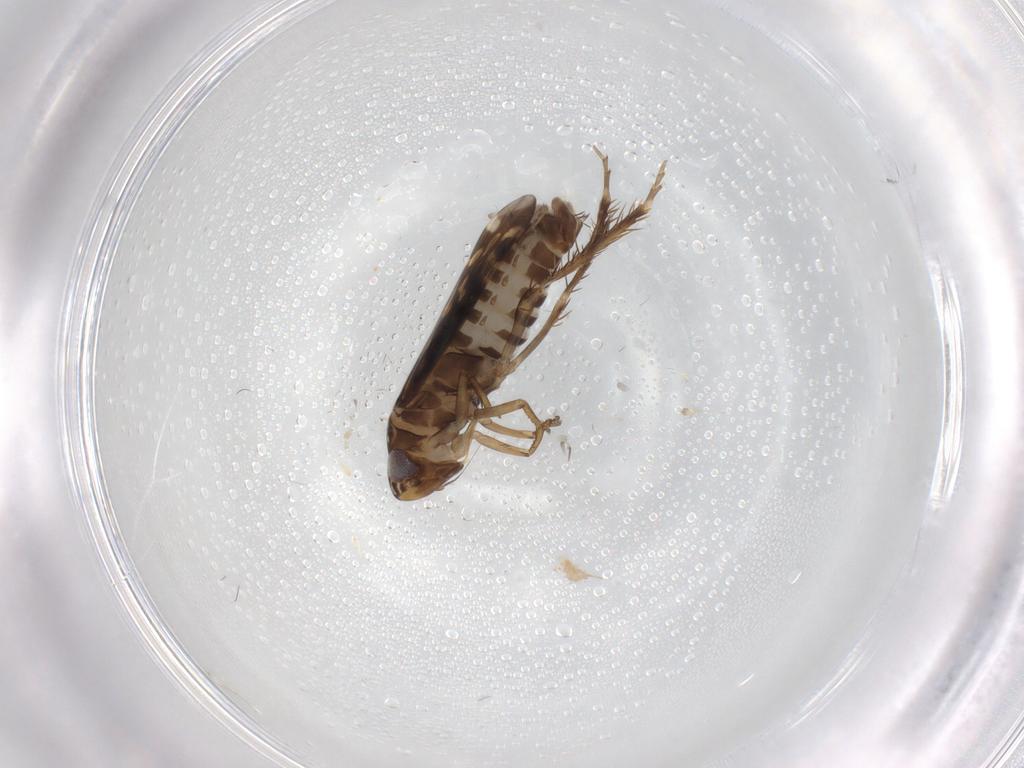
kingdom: Animalia
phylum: Arthropoda
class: Insecta
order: Hemiptera
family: Cicadellidae
